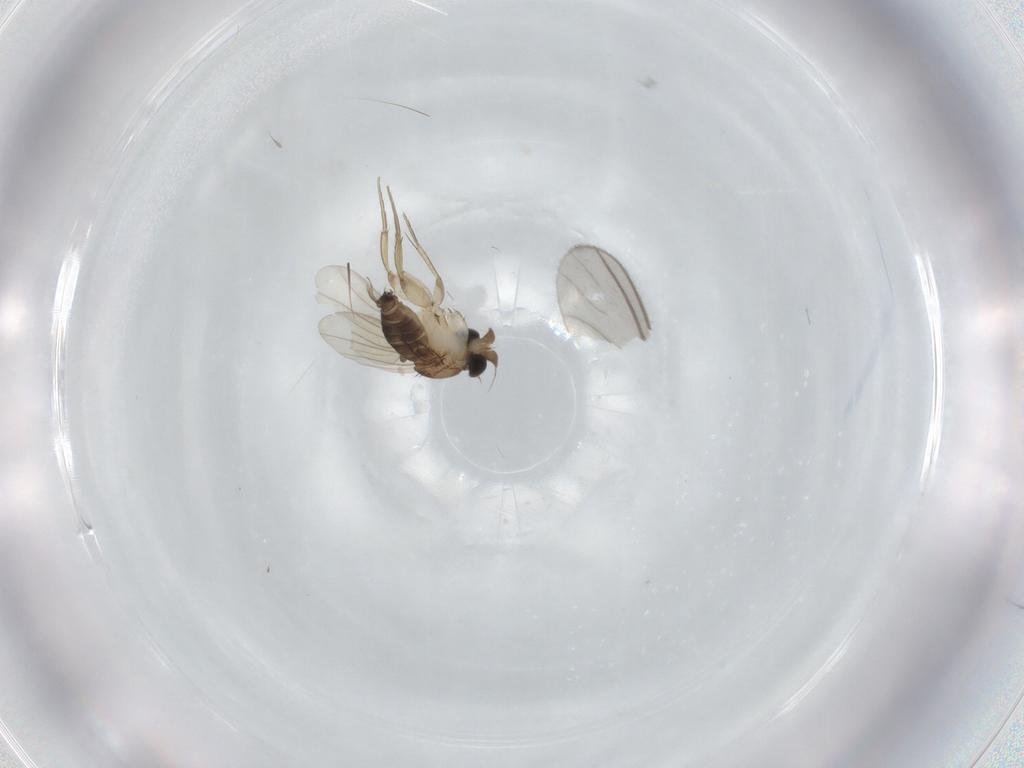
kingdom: Animalia
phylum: Arthropoda
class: Insecta
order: Diptera
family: Phoridae
